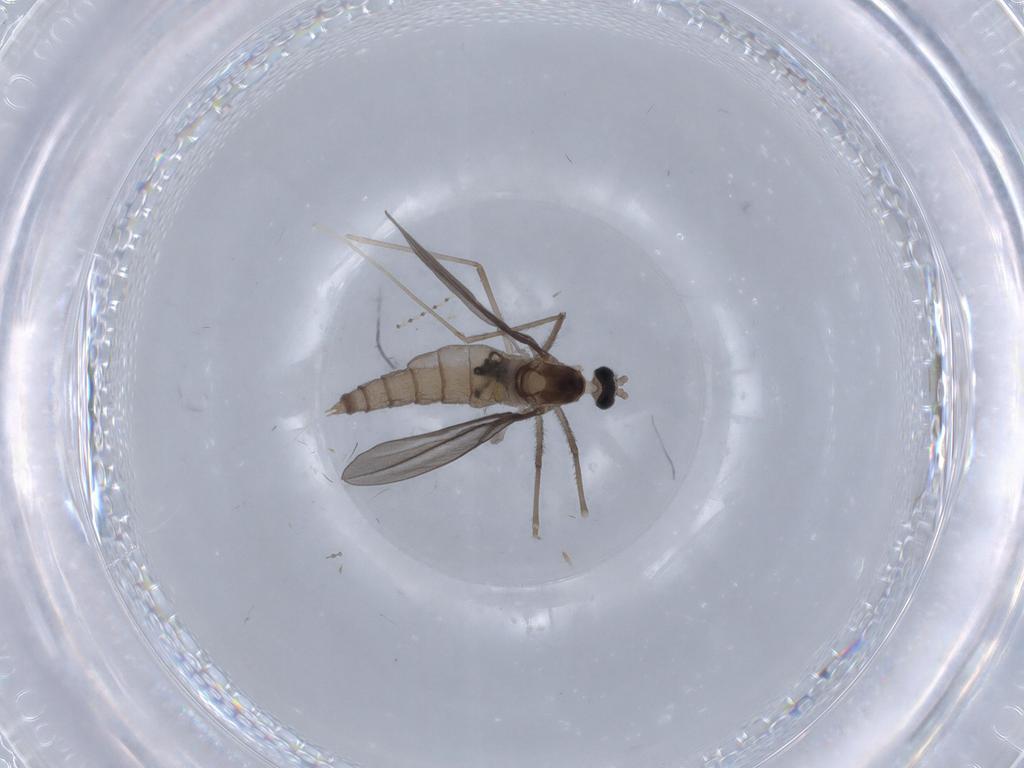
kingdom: Animalia
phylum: Arthropoda
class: Insecta
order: Diptera
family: Cecidomyiidae
